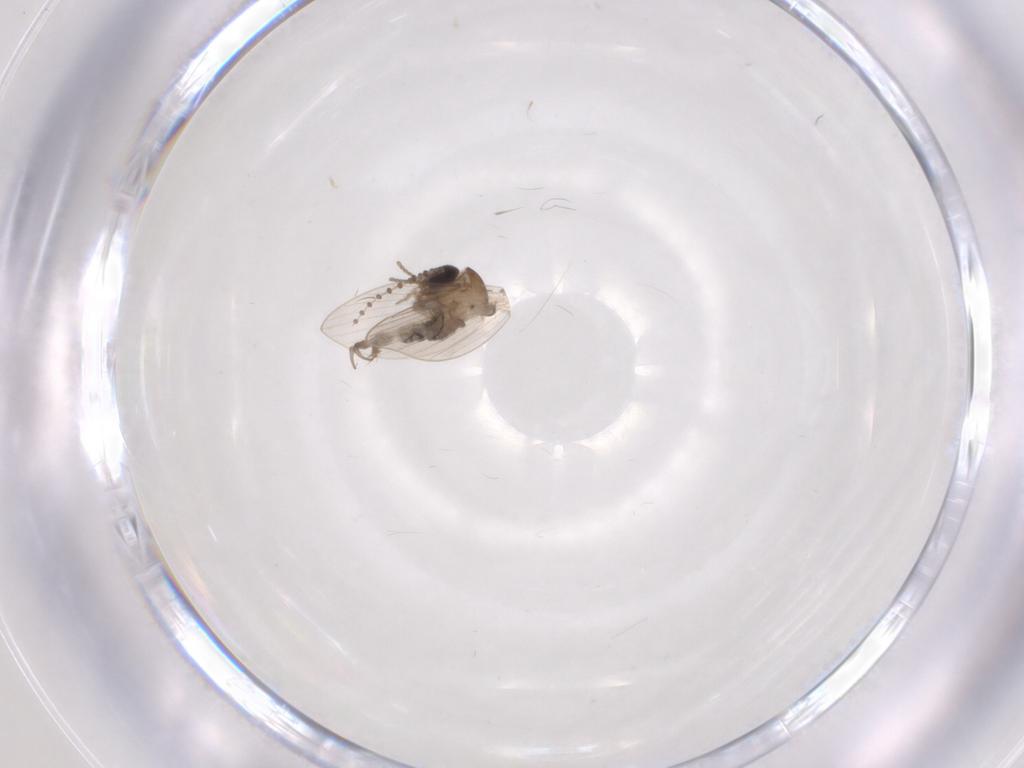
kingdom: Animalia
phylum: Arthropoda
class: Insecta
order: Diptera
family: Psychodidae
